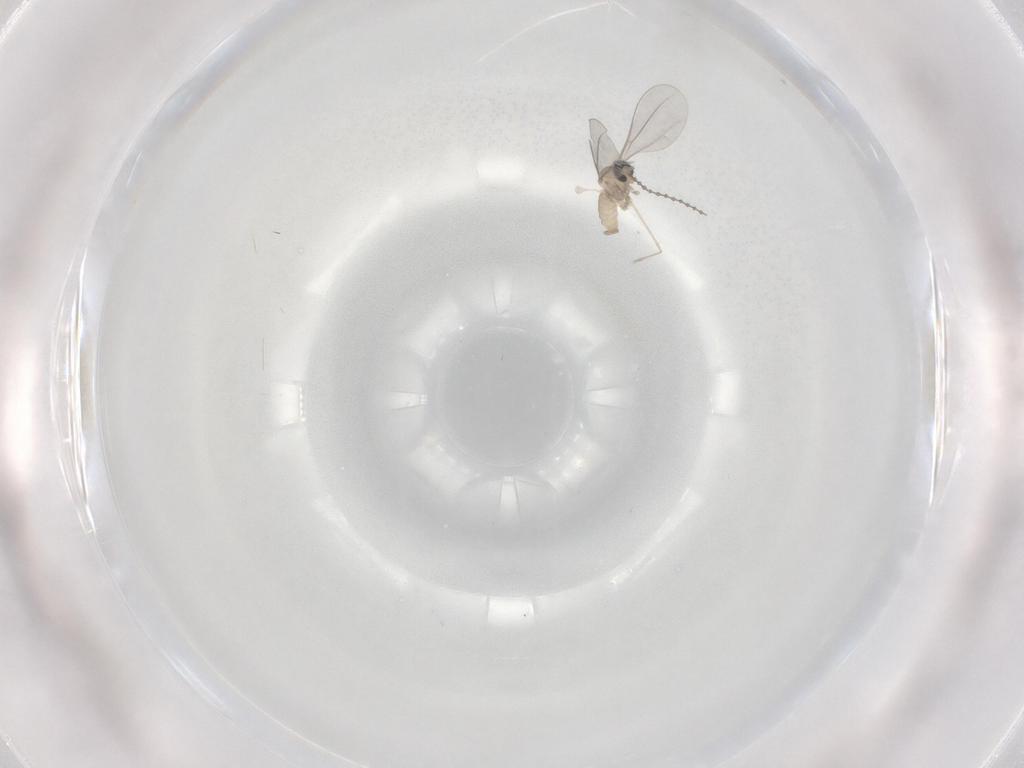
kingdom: Animalia
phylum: Arthropoda
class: Insecta
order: Diptera
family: Cecidomyiidae
